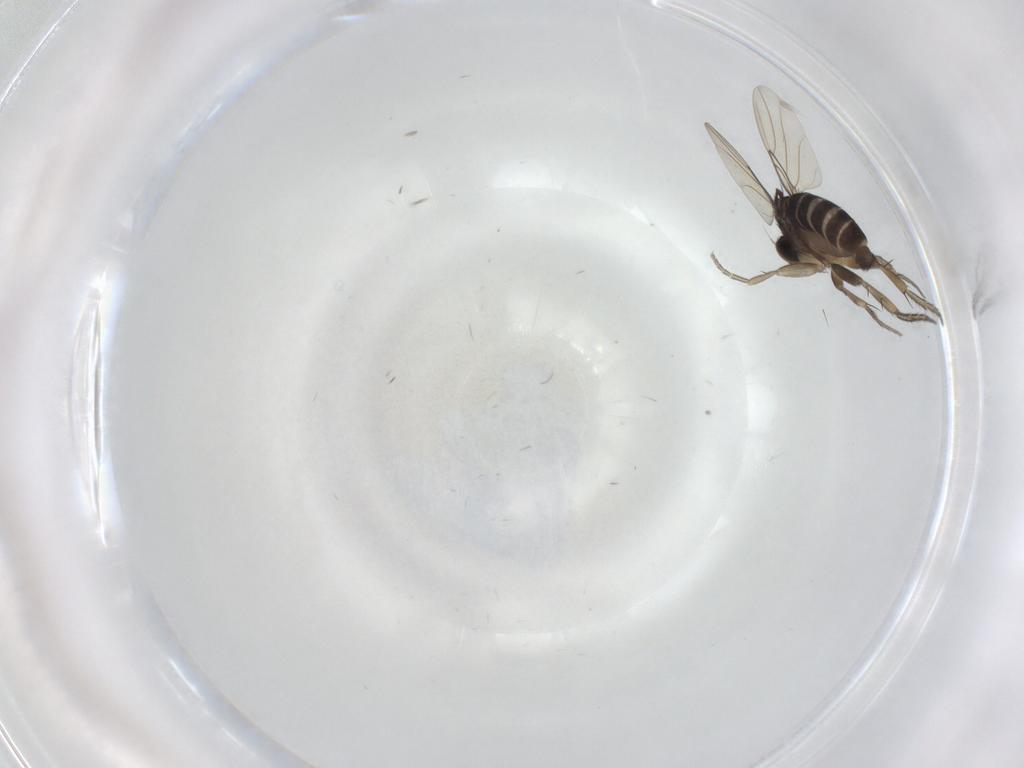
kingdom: Animalia
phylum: Arthropoda
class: Insecta
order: Diptera
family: Phoridae
